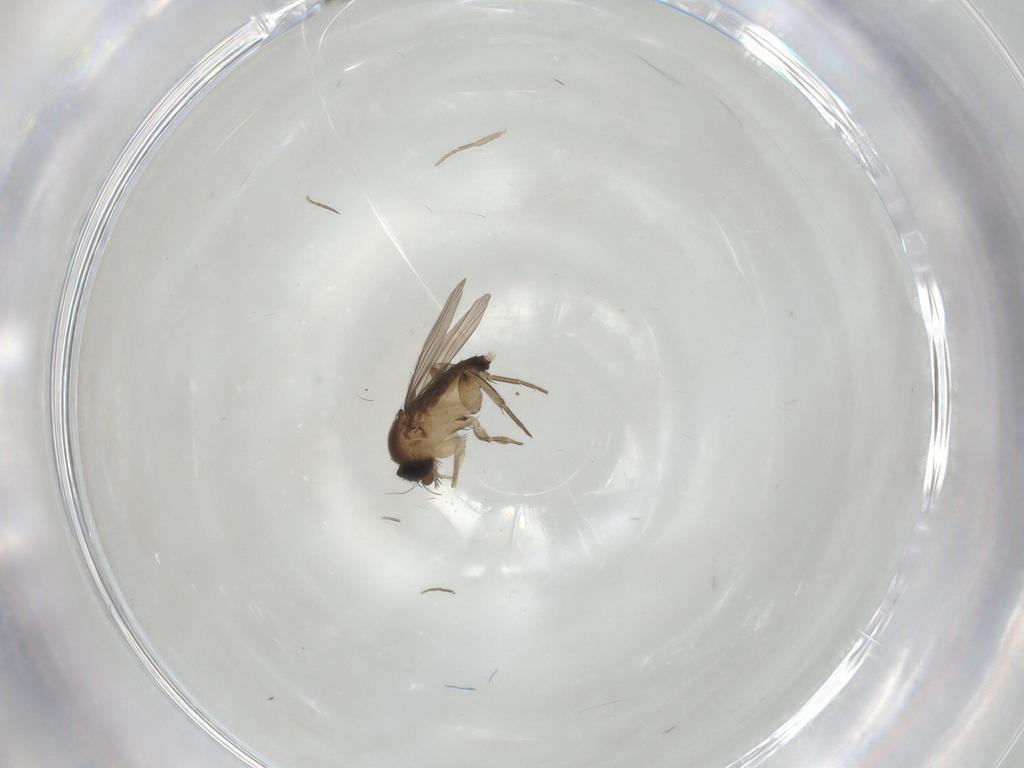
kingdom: Animalia
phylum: Arthropoda
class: Insecta
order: Diptera
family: Phoridae
